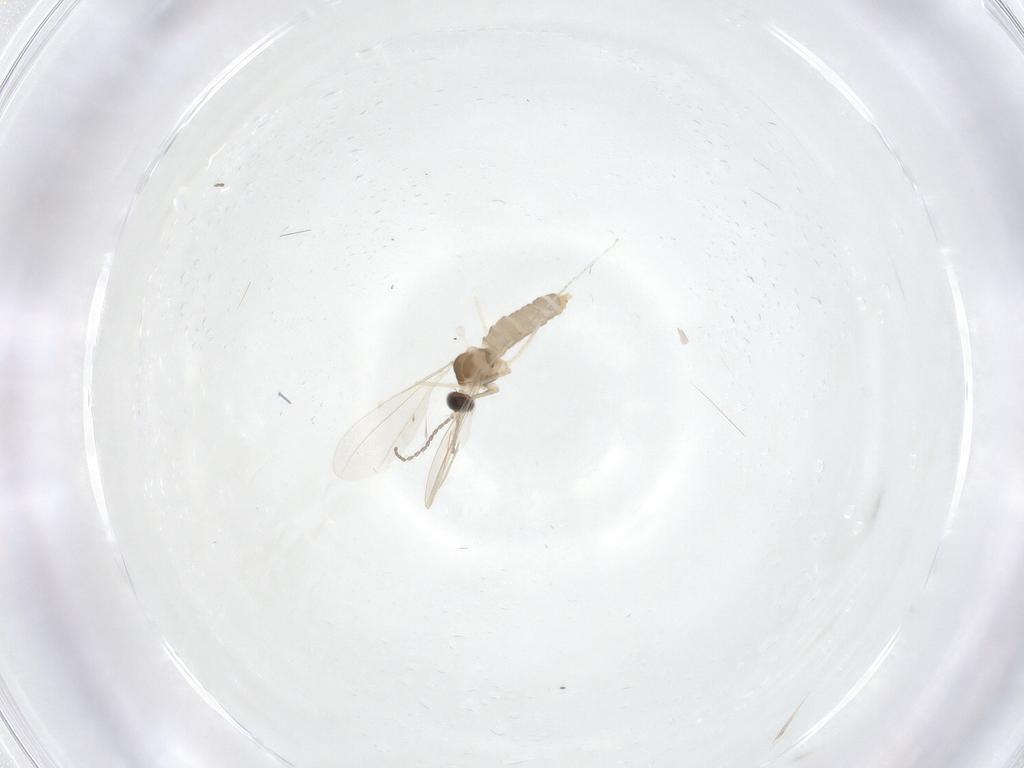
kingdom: Animalia
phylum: Arthropoda
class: Insecta
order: Diptera
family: Cecidomyiidae
